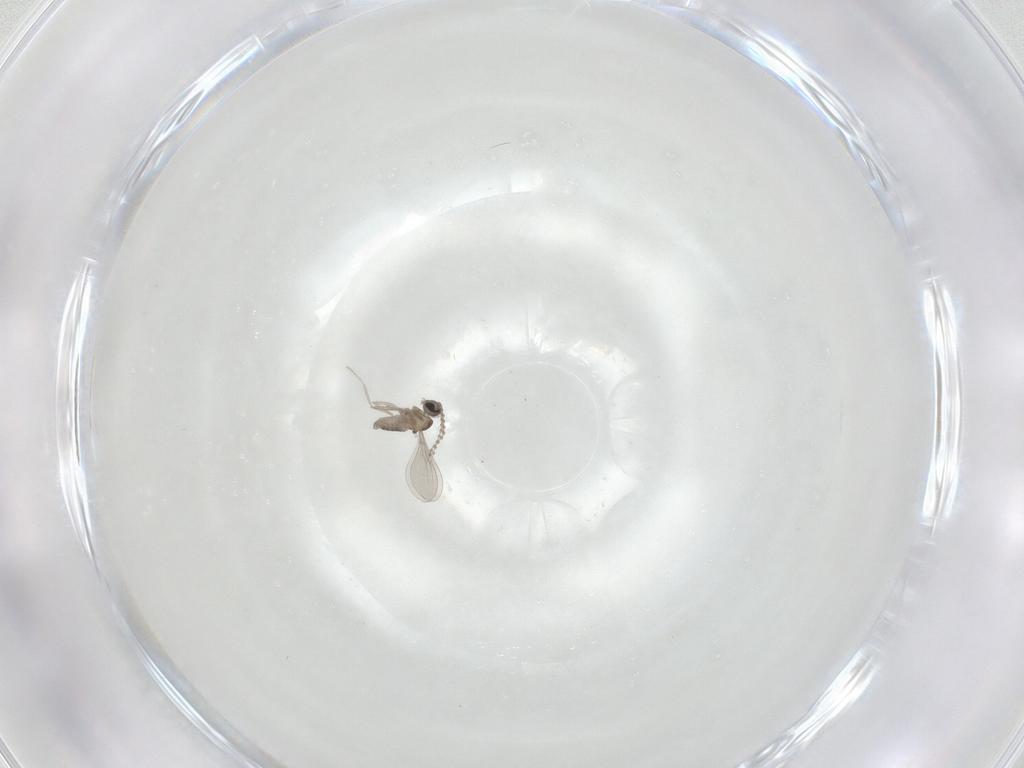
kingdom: Animalia
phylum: Arthropoda
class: Insecta
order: Diptera
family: Cecidomyiidae
